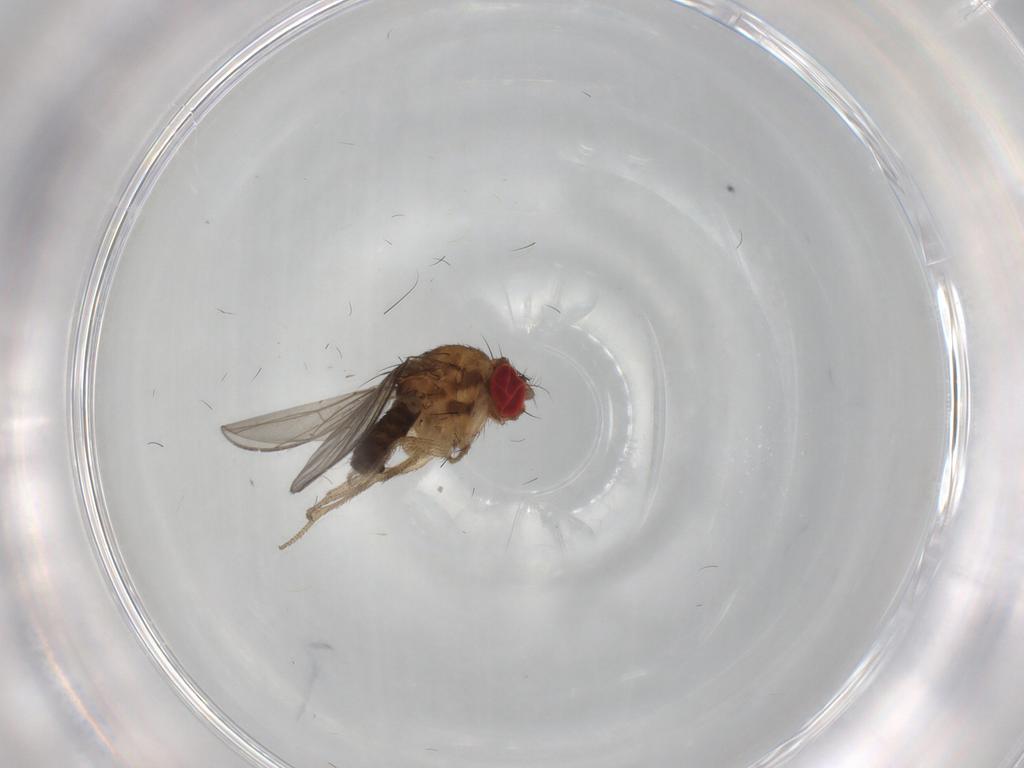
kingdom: Animalia
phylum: Arthropoda
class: Insecta
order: Diptera
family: Drosophilidae
